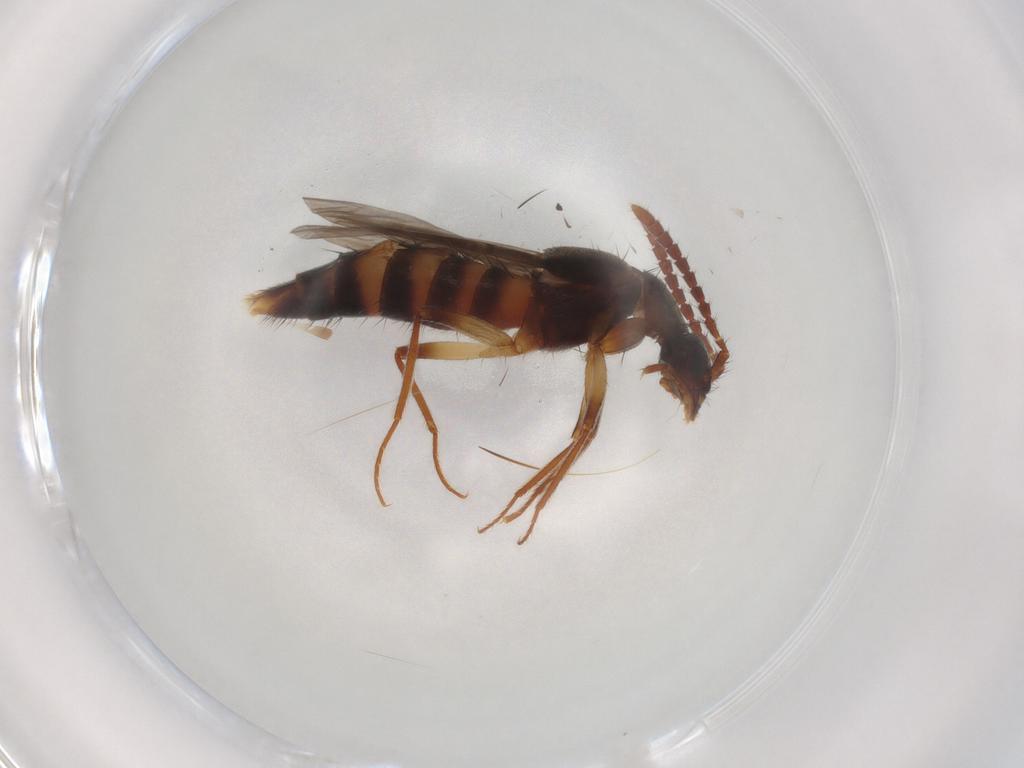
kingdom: Animalia
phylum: Arthropoda
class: Insecta
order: Coleoptera
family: Staphylinidae
